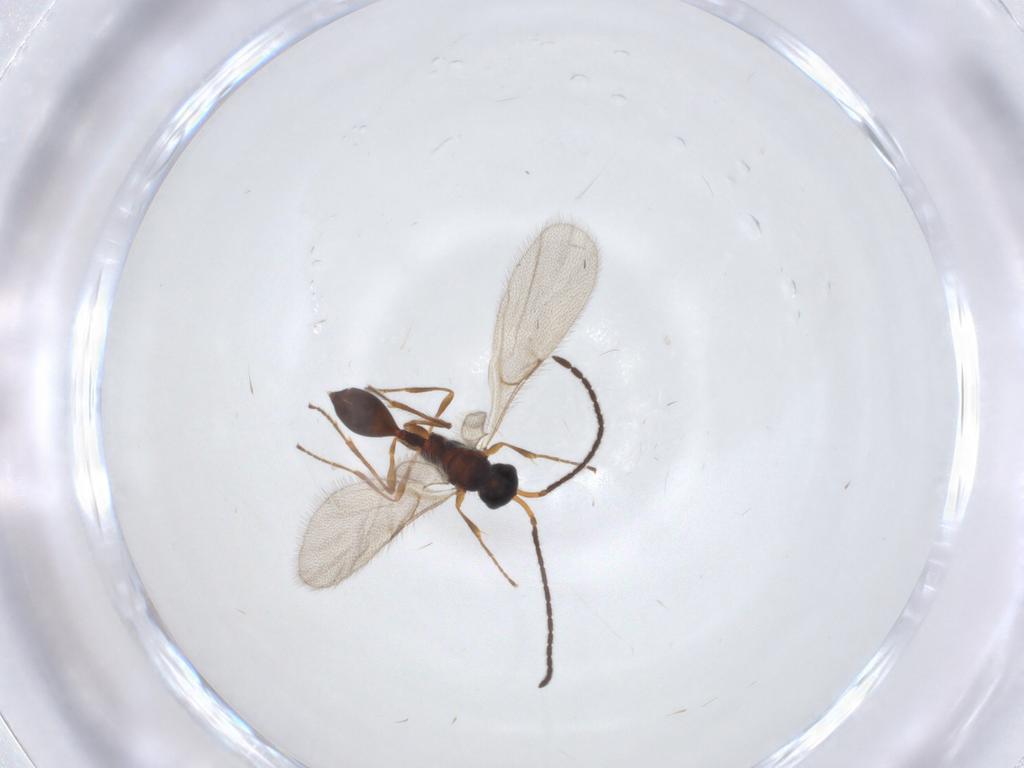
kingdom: Animalia
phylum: Arthropoda
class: Insecta
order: Hymenoptera
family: Diapriidae
